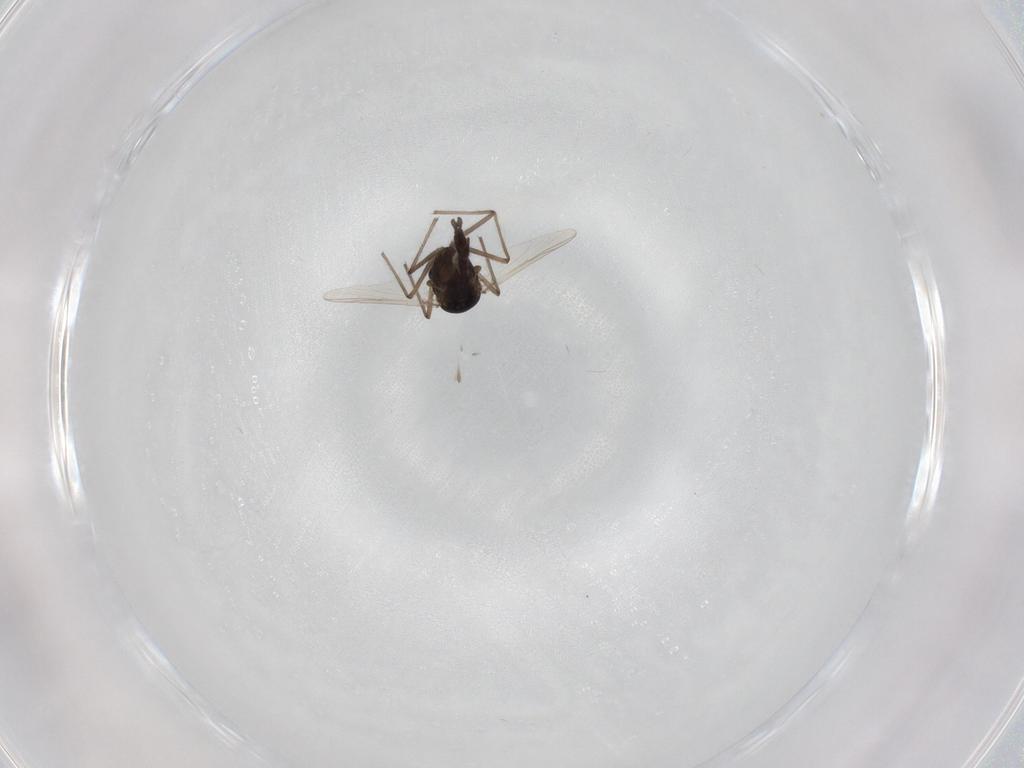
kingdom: Animalia
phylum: Arthropoda
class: Insecta
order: Diptera
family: Chironomidae
